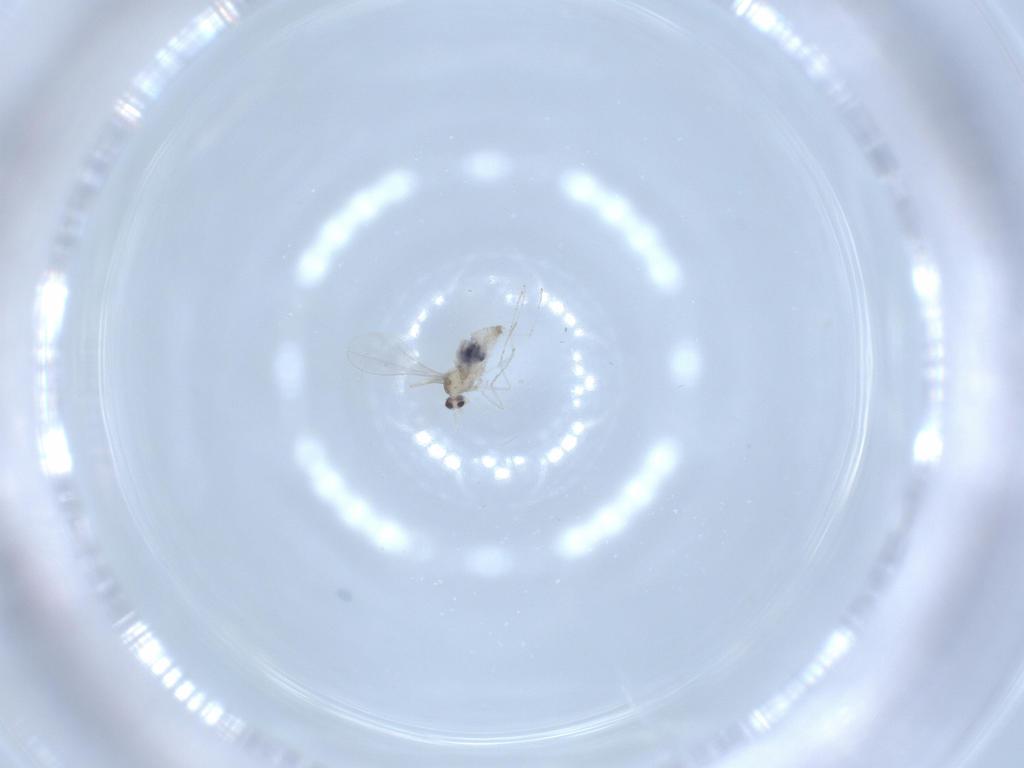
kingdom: Animalia
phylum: Arthropoda
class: Insecta
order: Diptera
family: Cecidomyiidae
